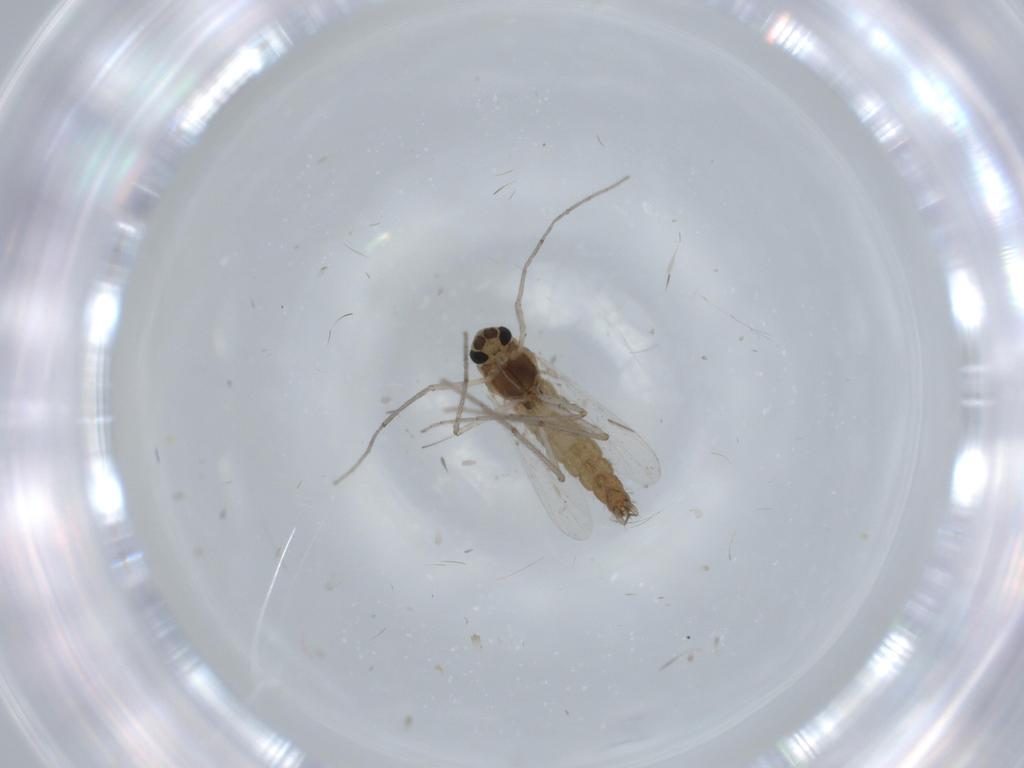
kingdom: Animalia
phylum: Arthropoda
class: Insecta
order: Diptera
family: Chironomidae
